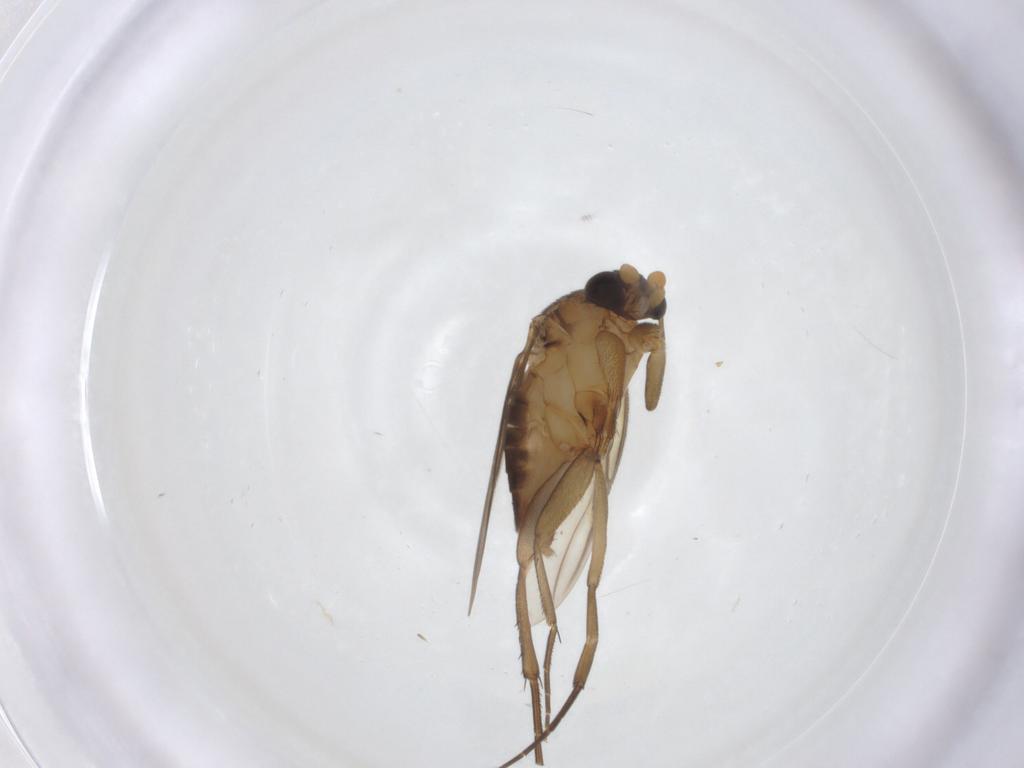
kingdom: Animalia
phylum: Arthropoda
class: Insecta
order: Diptera
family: Phoridae
